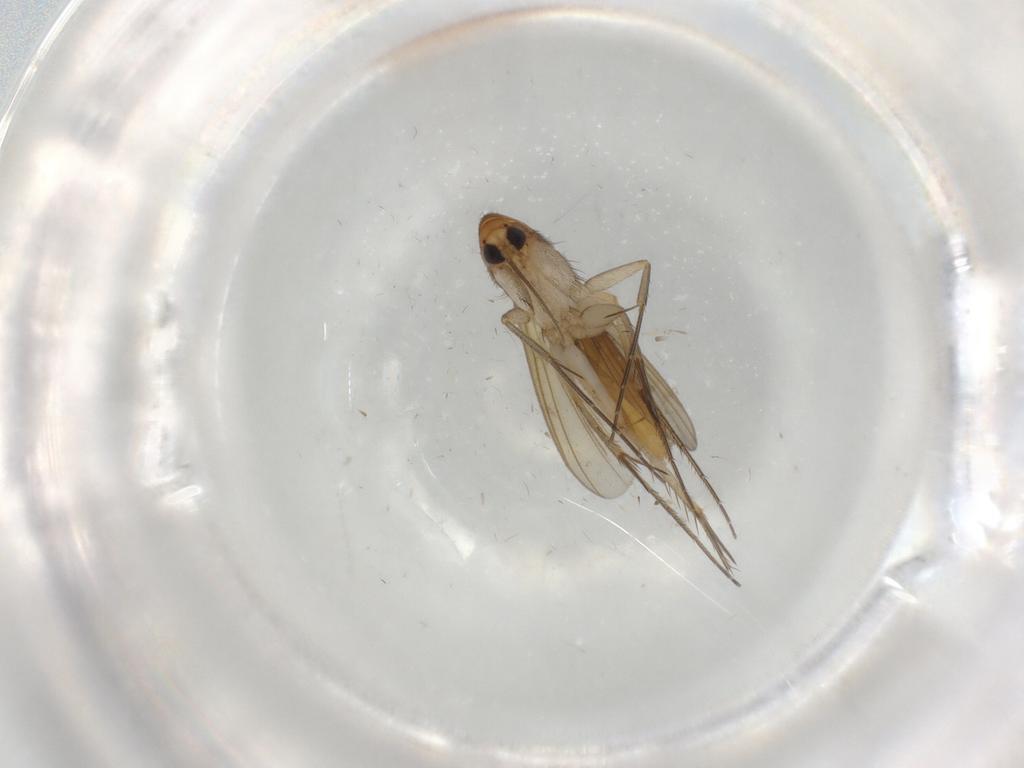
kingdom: Animalia
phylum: Arthropoda
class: Insecta
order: Diptera
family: Mycetophilidae
